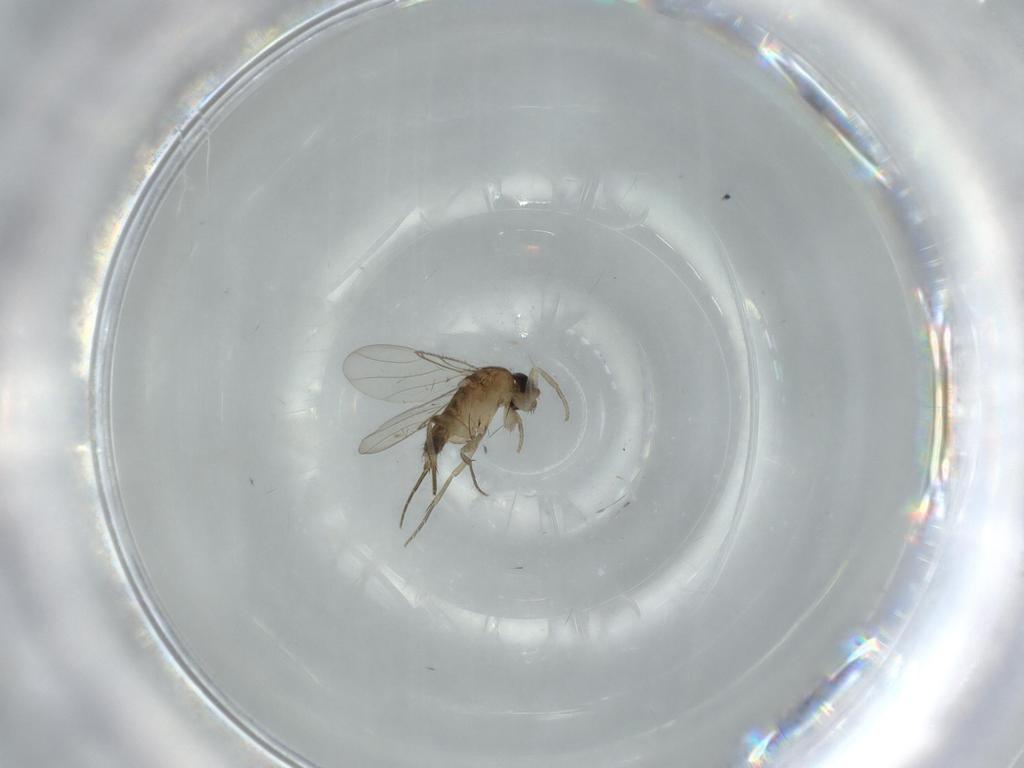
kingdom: Animalia
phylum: Arthropoda
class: Insecta
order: Diptera
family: Phoridae
